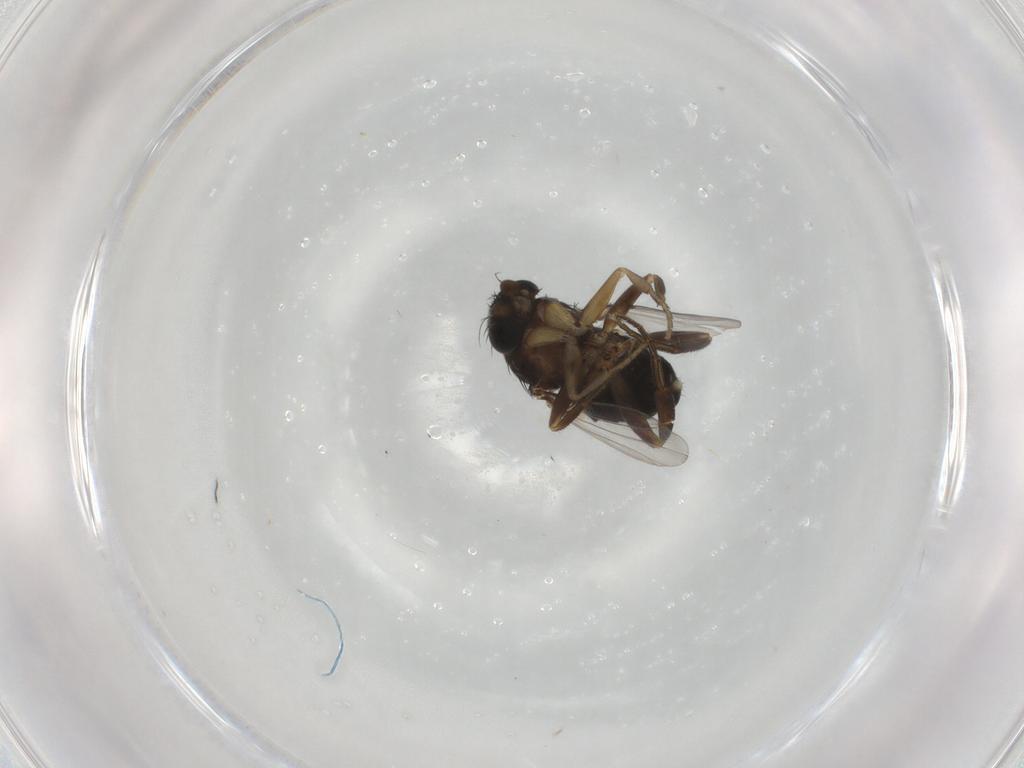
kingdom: Animalia
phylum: Arthropoda
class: Insecta
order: Diptera
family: Phoridae
